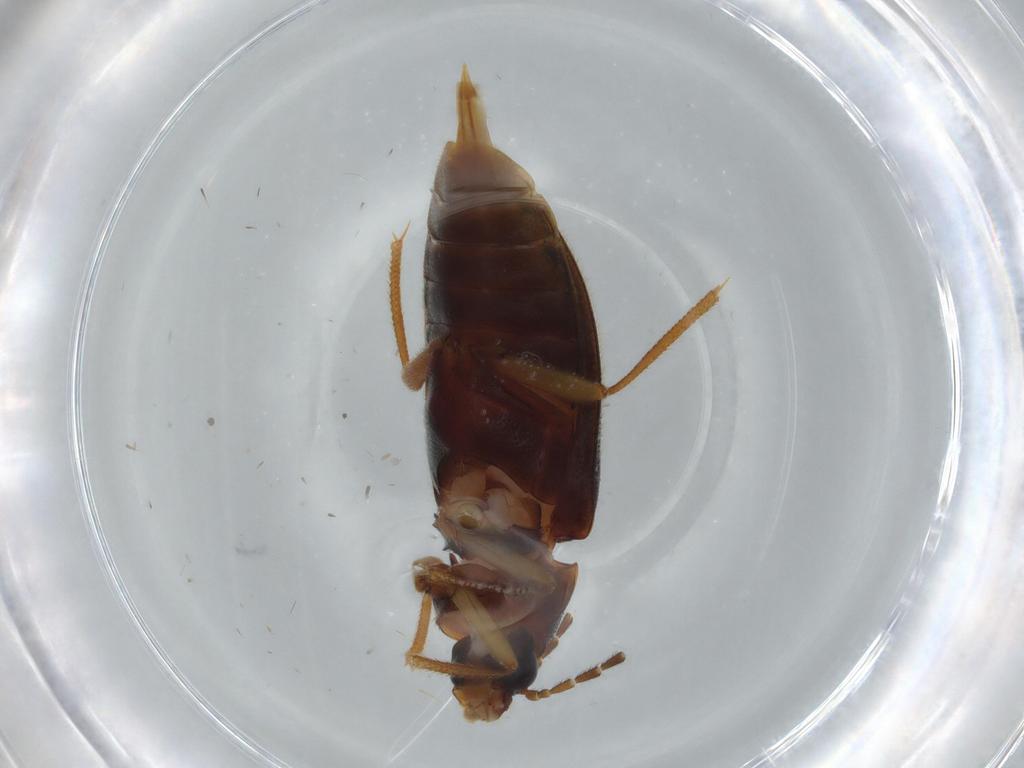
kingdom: Animalia
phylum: Arthropoda
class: Insecta
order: Coleoptera
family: Ptilodactylidae
